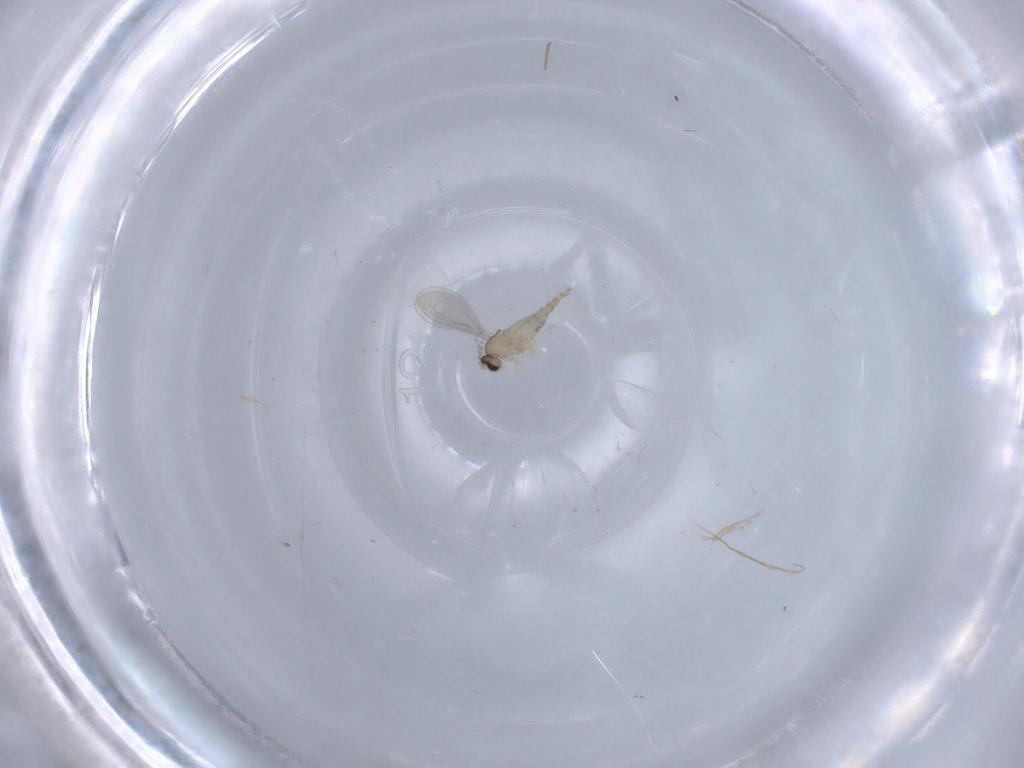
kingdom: Animalia
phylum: Arthropoda
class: Insecta
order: Diptera
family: Cecidomyiidae
